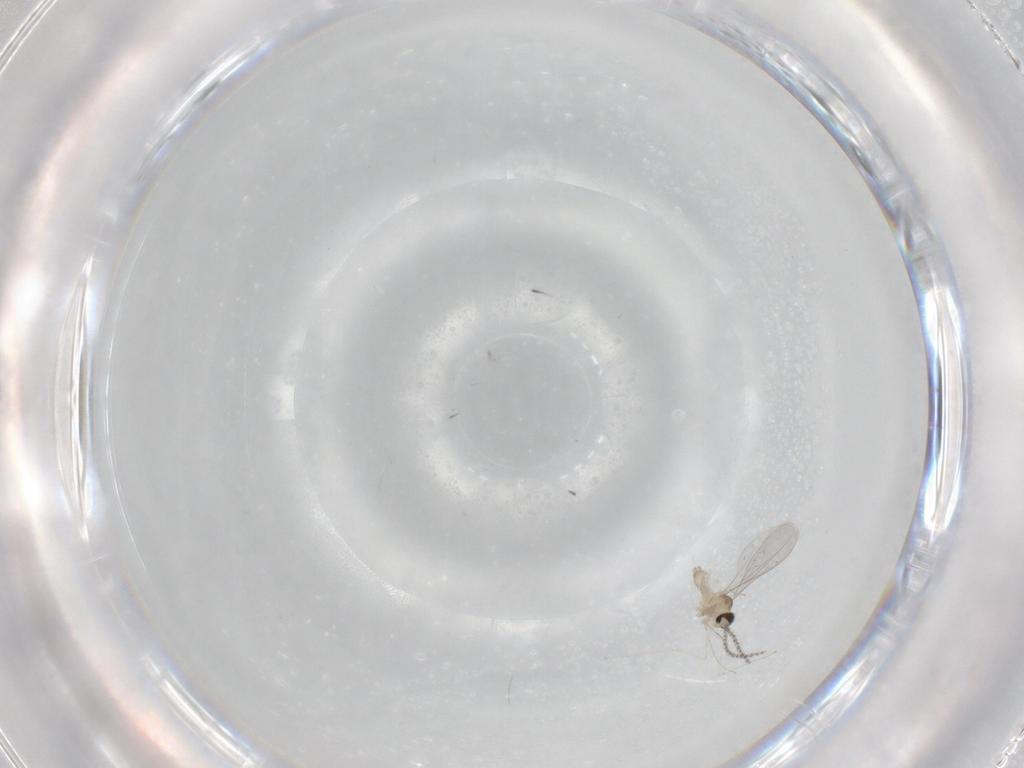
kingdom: Animalia
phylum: Arthropoda
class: Insecta
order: Diptera
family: Cecidomyiidae
